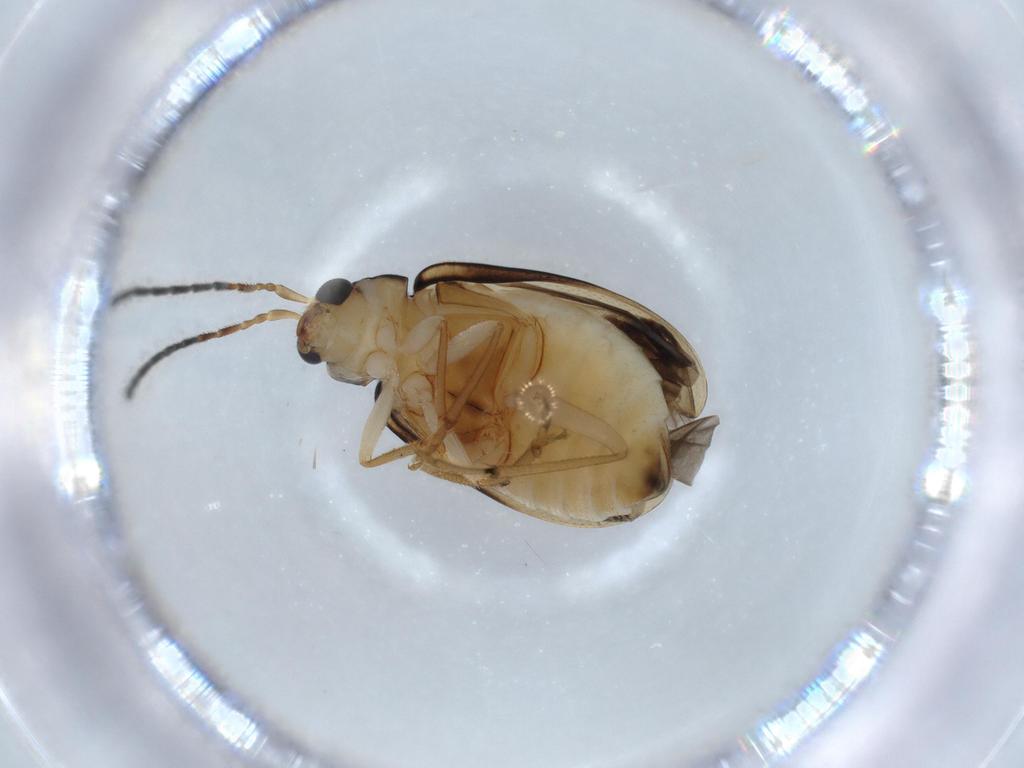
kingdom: Animalia
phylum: Arthropoda
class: Insecta
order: Coleoptera
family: Chrysomelidae
